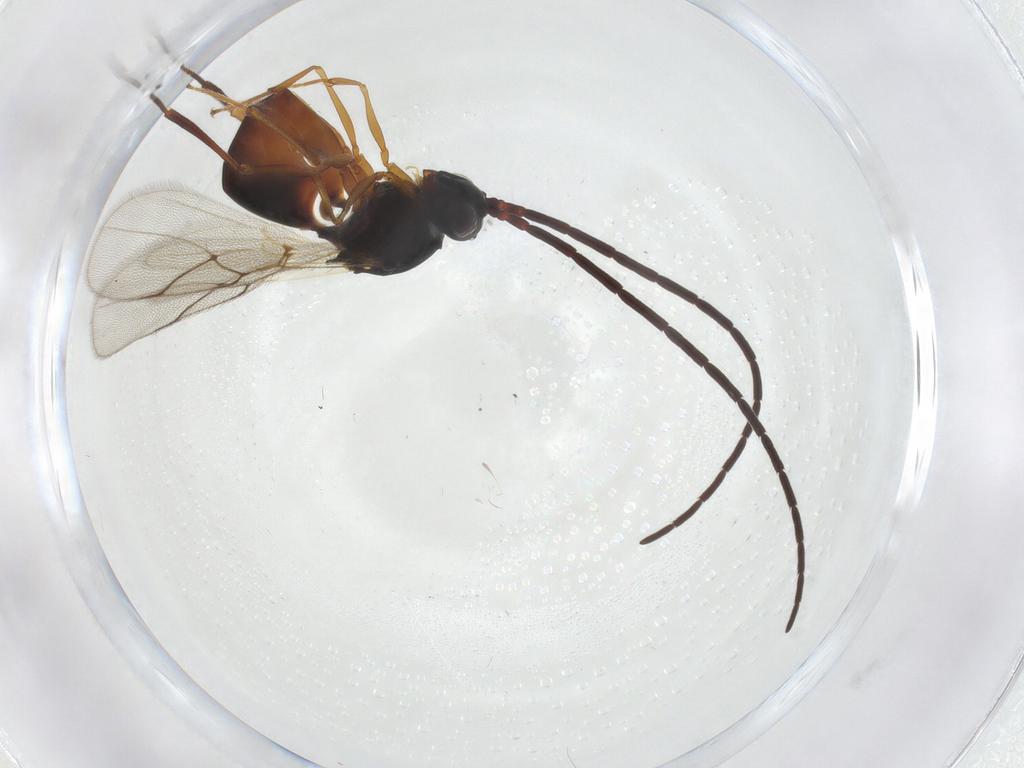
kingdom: Animalia
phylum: Arthropoda
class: Insecta
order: Hymenoptera
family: Figitidae
